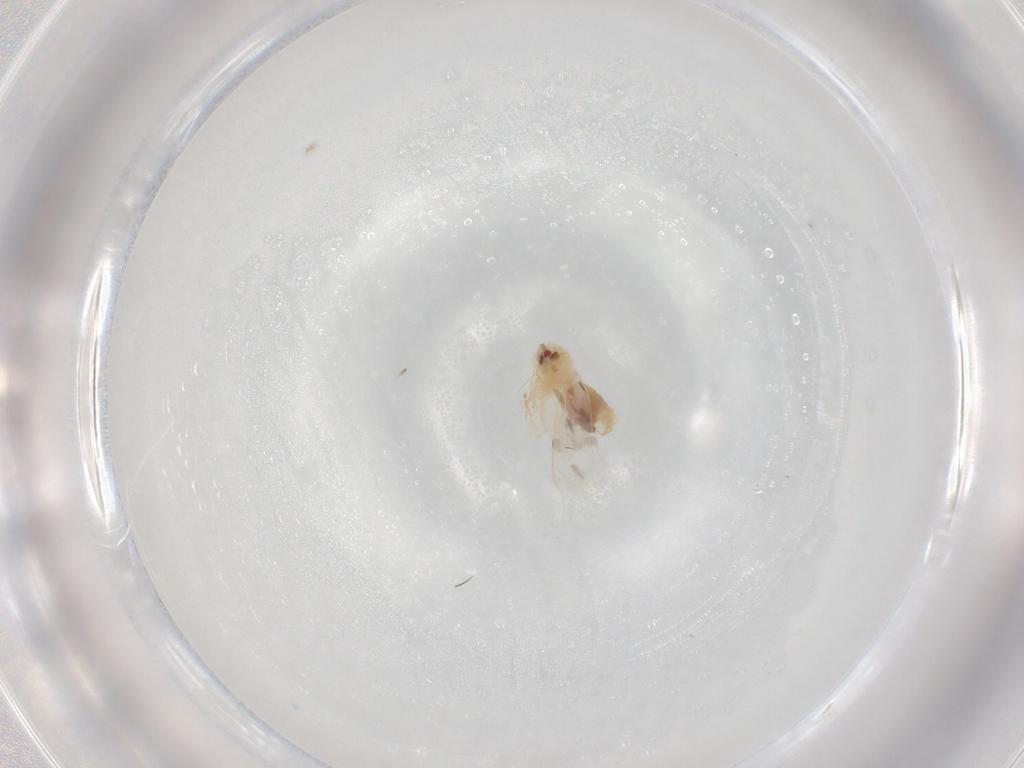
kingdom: Animalia
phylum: Arthropoda
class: Insecta
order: Hemiptera
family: Aleyrodidae
